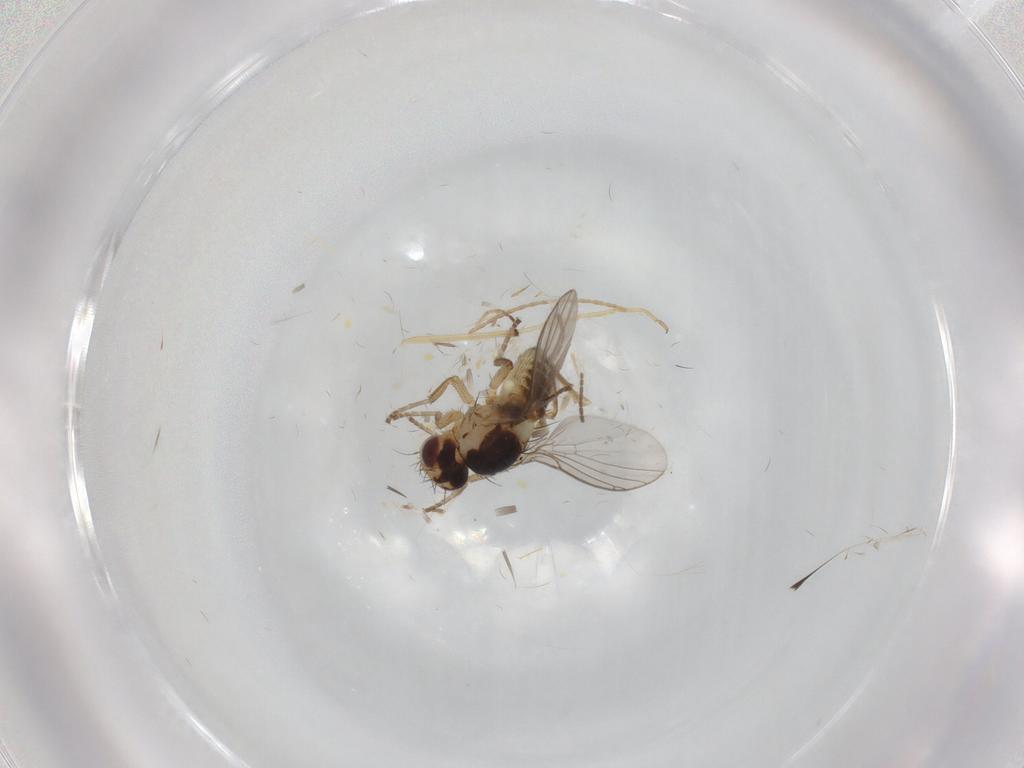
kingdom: Animalia
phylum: Arthropoda
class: Insecta
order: Diptera
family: Agromyzidae
